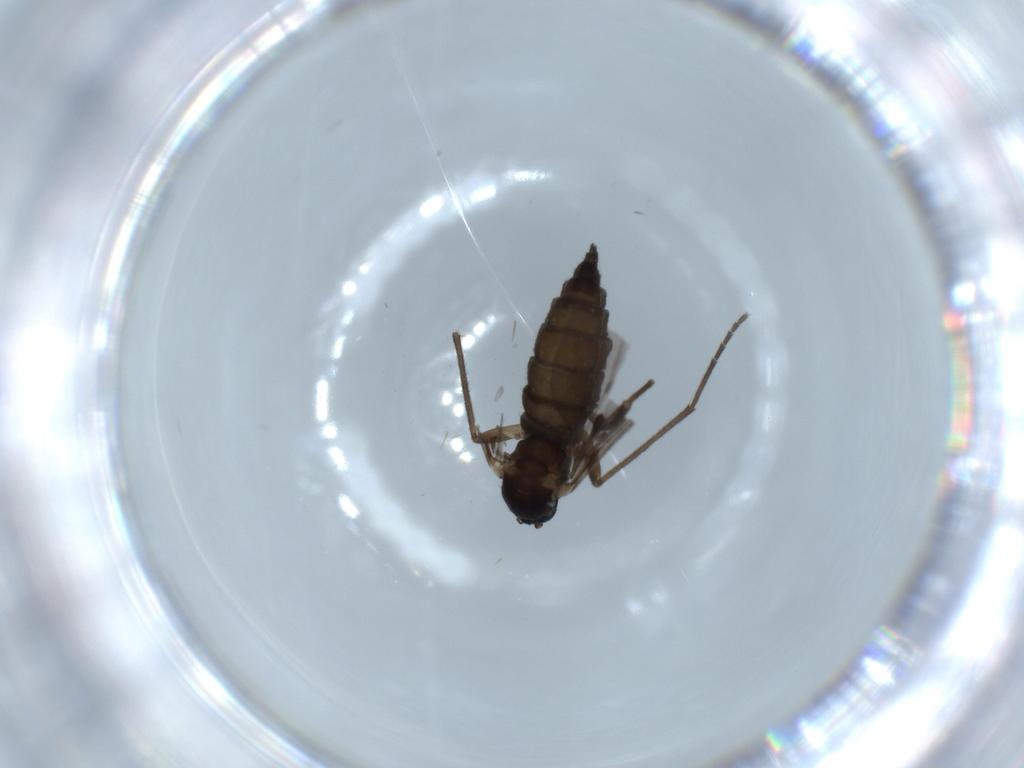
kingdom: Animalia
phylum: Arthropoda
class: Insecta
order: Diptera
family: Sciaridae
